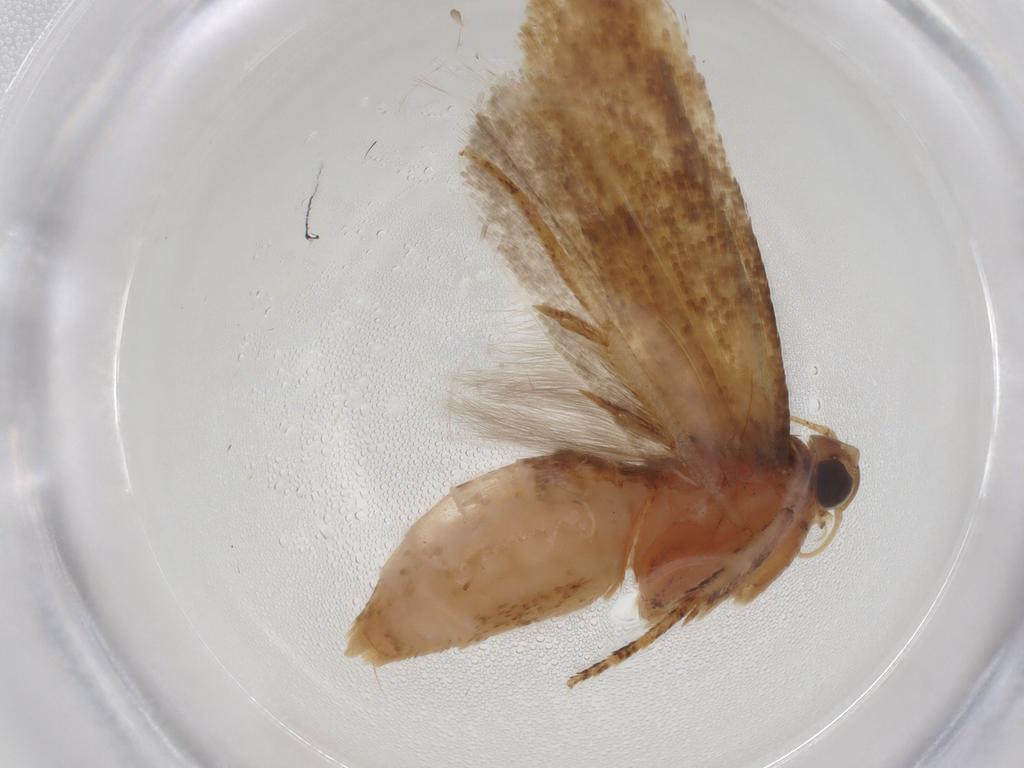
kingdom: Animalia
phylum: Arthropoda
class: Insecta
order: Lepidoptera
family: Gelechiidae
